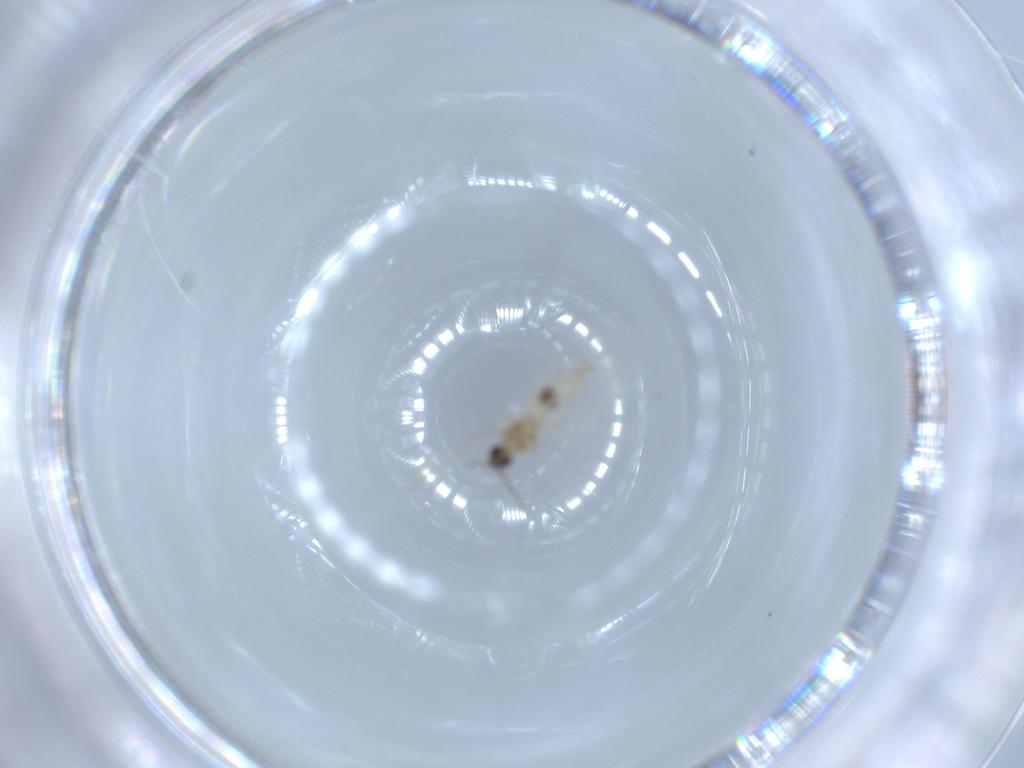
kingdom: Animalia
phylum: Arthropoda
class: Insecta
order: Diptera
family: Cecidomyiidae
